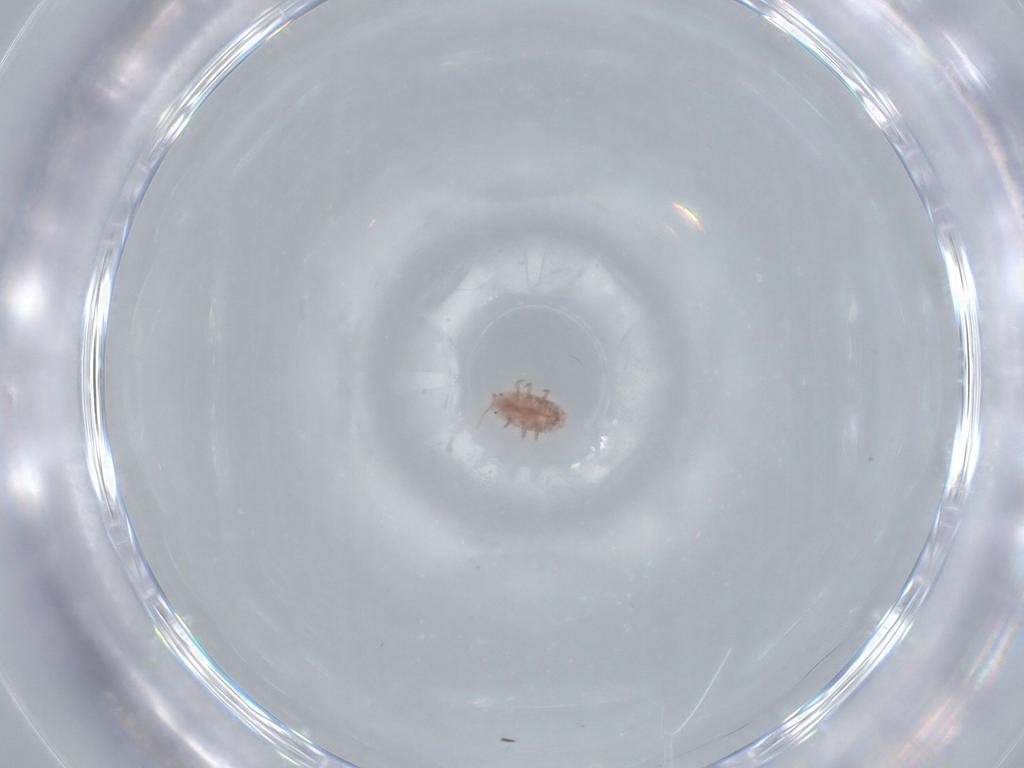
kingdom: Animalia
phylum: Arthropoda
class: Insecta
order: Hemiptera
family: Pseudococcidae
